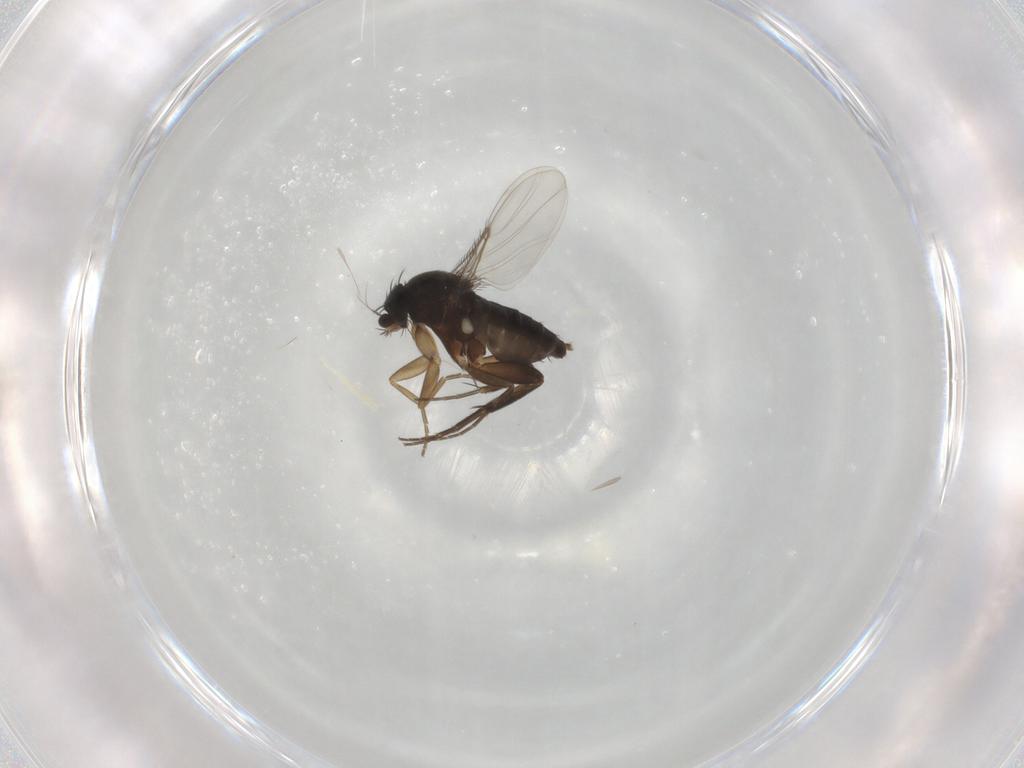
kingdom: Animalia
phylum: Arthropoda
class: Insecta
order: Diptera
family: Phoridae
